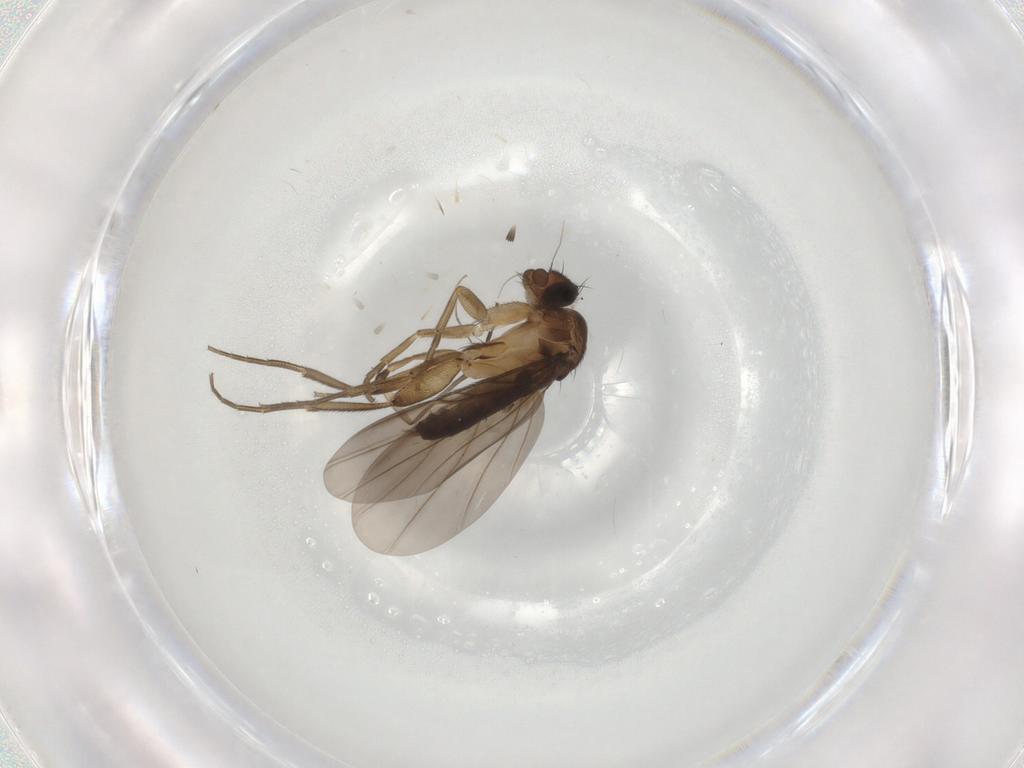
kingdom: Animalia
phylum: Arthropoda
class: Insecta
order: Diptera
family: Phoridae
